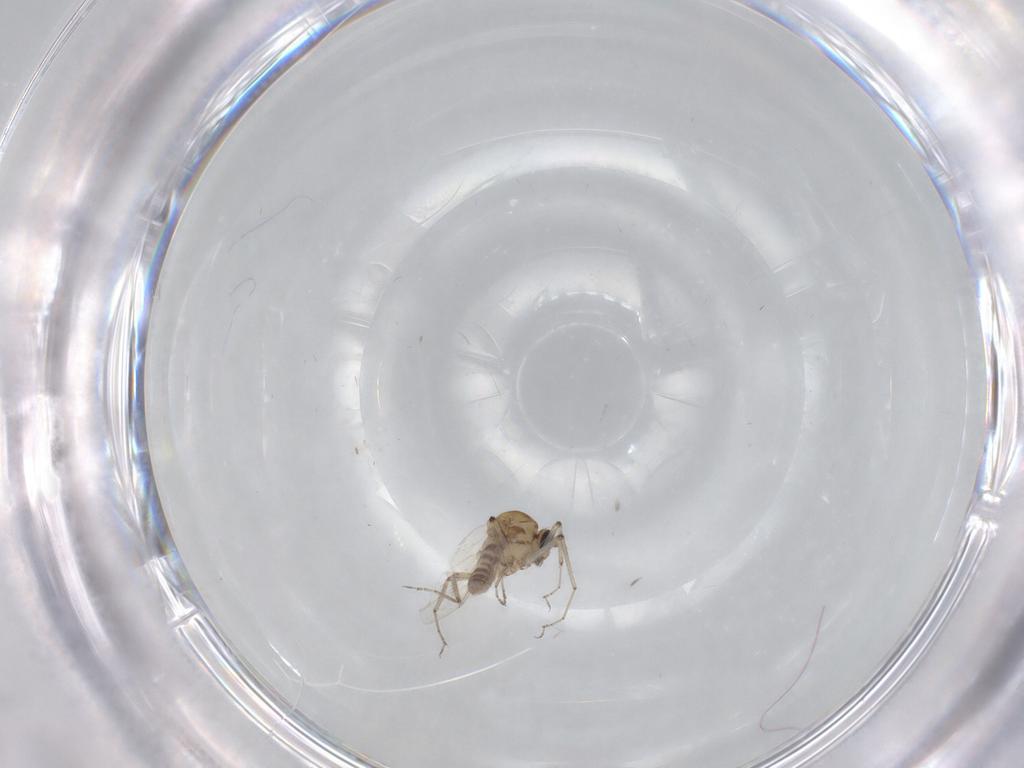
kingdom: Animalia
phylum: Arthropoda
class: Insecta
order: Diptera
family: Ceratopogonidae
